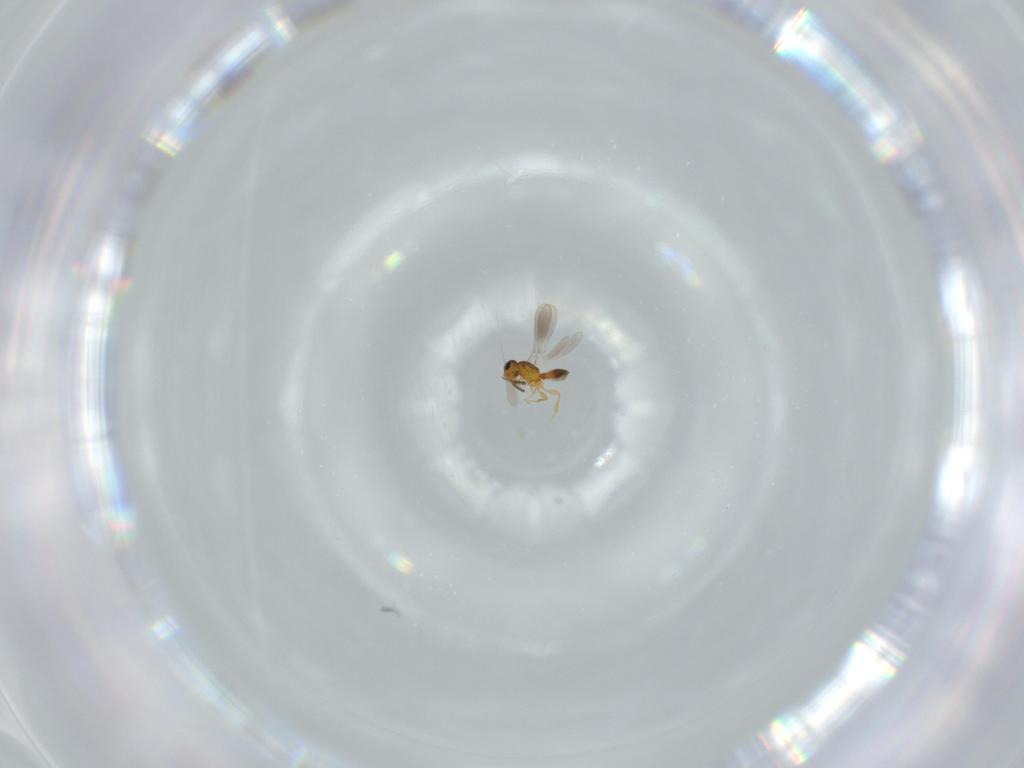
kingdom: Animalia
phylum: Arthropoda
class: Insecta
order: Hymenoptera
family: Platygastridae
